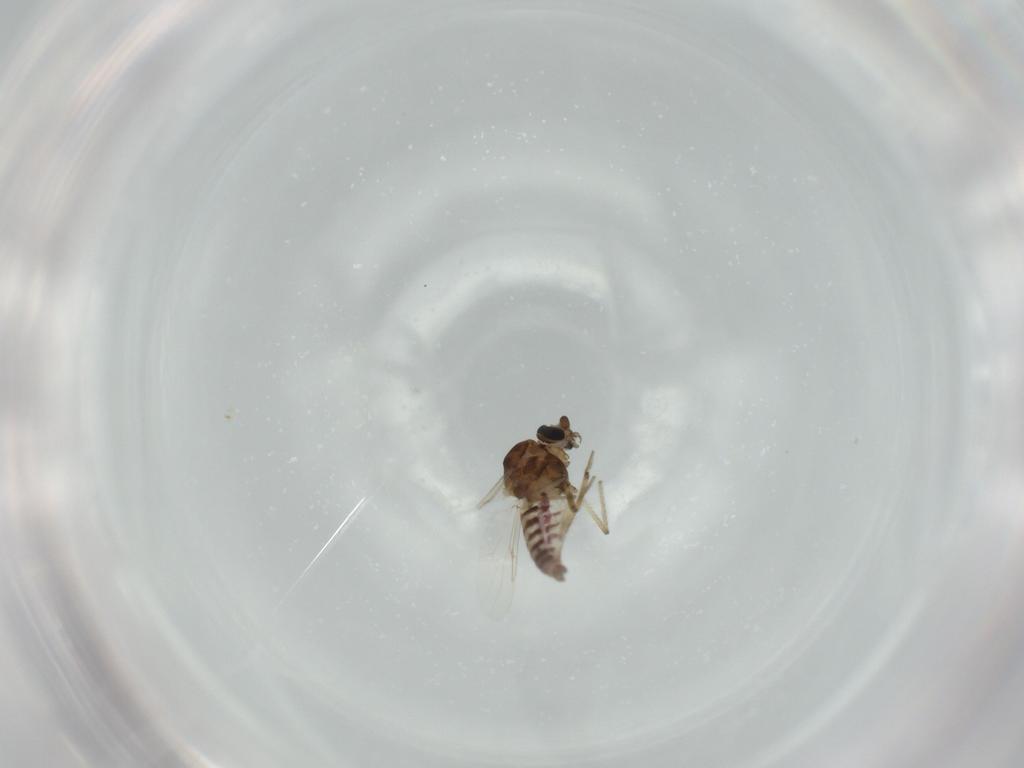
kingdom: Animalia
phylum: Arthropoda
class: Insecta
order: Diptera
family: Ceratopogonidae
